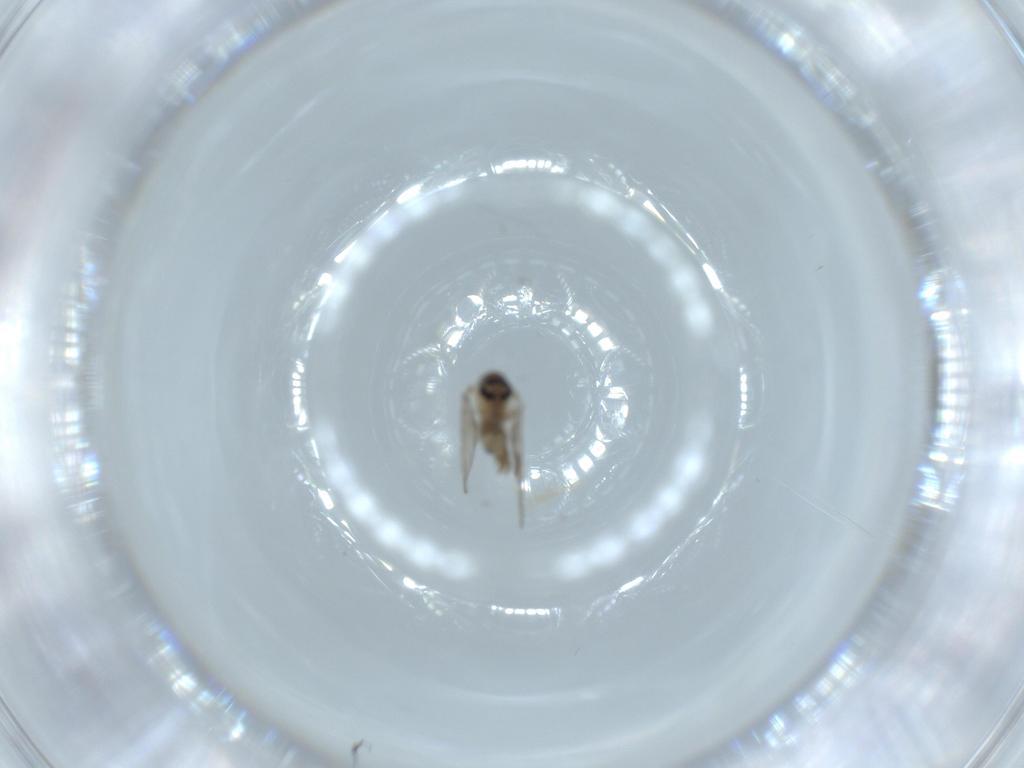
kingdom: Animalia
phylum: Arthropoda
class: Insecta
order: Diptera
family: Psychodidae
